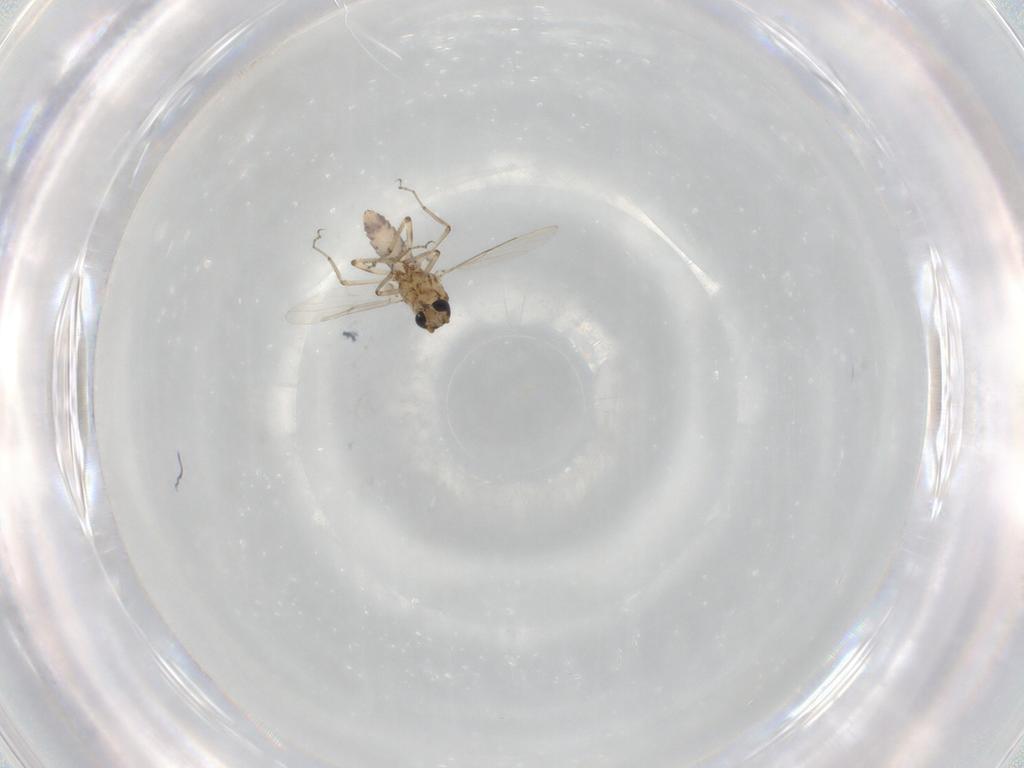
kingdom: Animalia
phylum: Arthropoda
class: Insecta
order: Diptera
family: Ceratopogonidae
